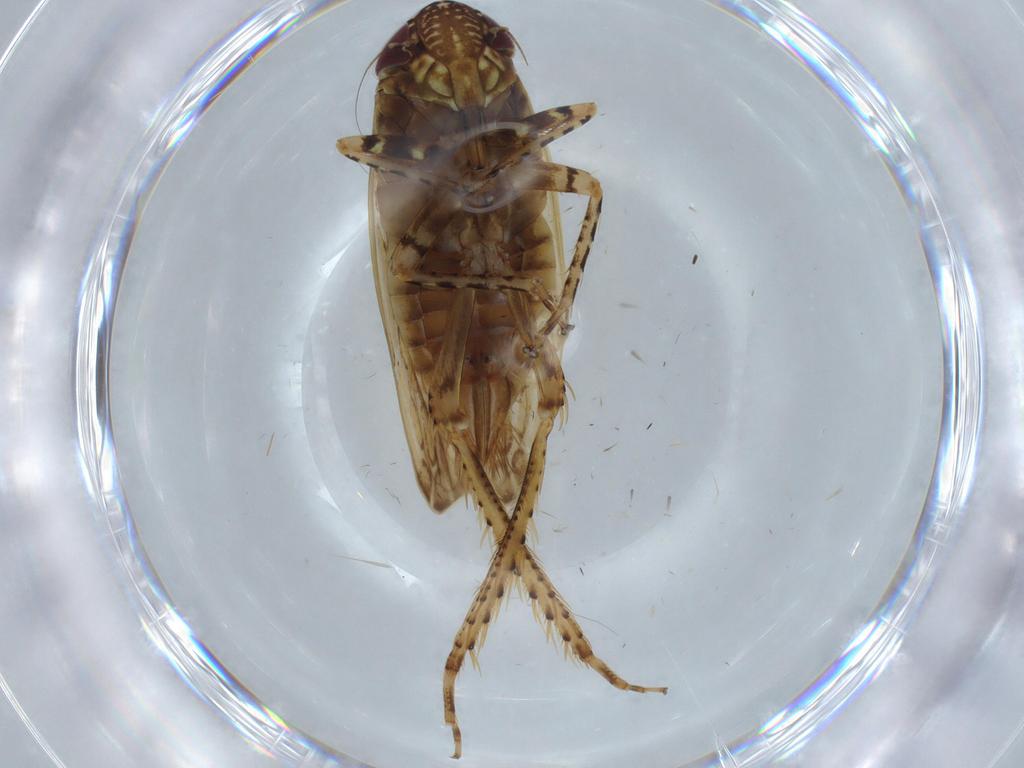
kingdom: Animalia
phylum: Arthropoda
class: Insecta
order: Hemiptera
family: Cicadellidae
